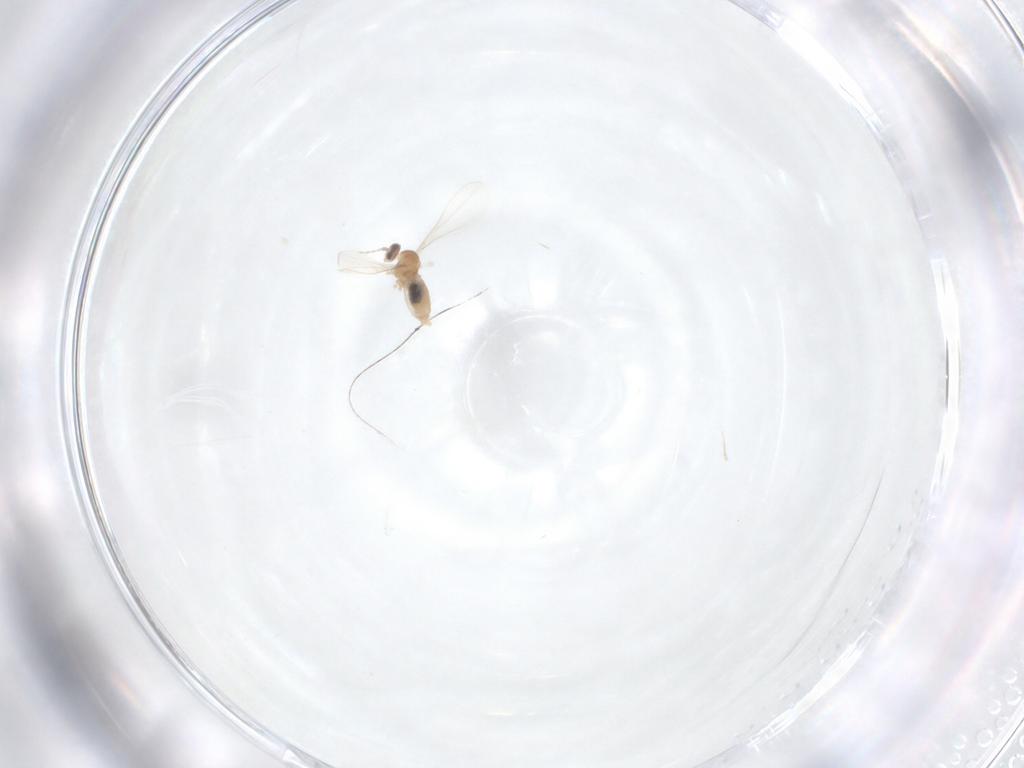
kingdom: Animalia
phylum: Arthropoda
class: Insecta
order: Diptera
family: Cecidomyiidae
